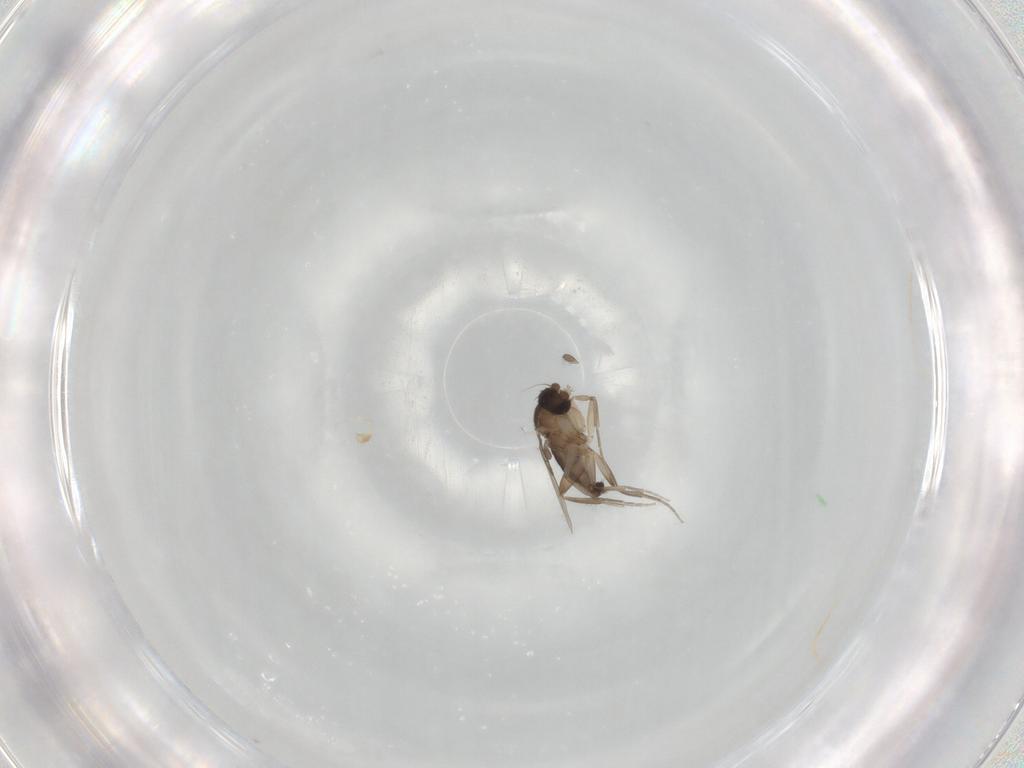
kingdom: Animalia
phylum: Arthropoda
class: Insecta
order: Diptera
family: Phoridae
